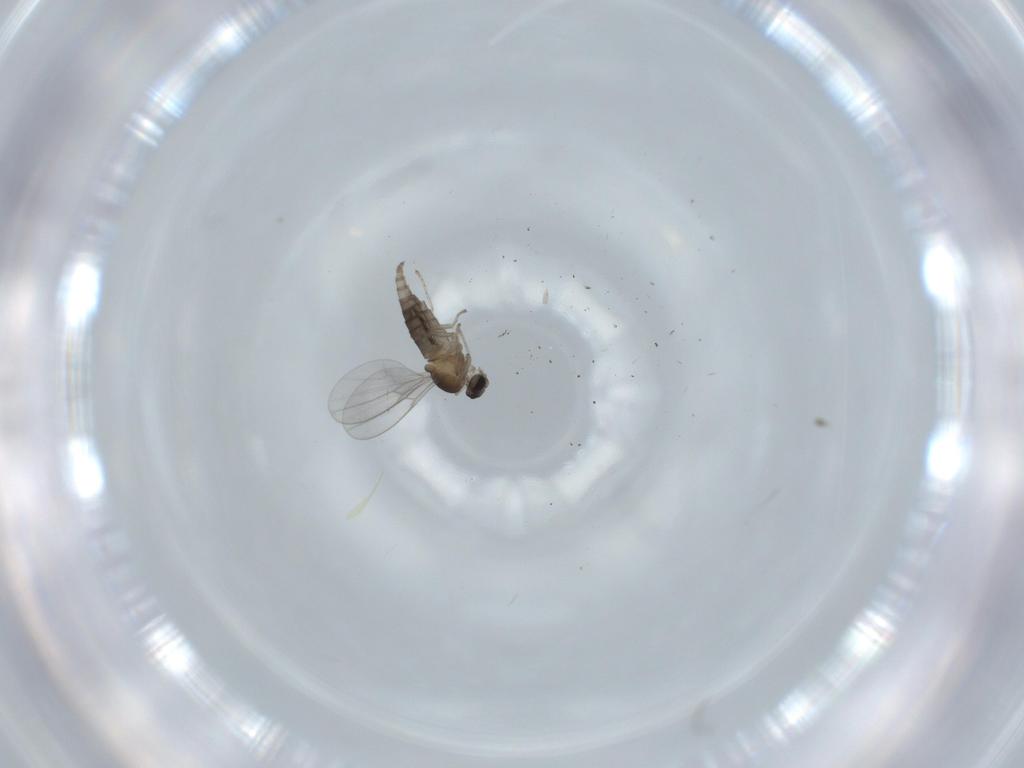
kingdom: Animalia
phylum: Arthropoda
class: Insecta
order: Diptera
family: Cecidomyiidae
